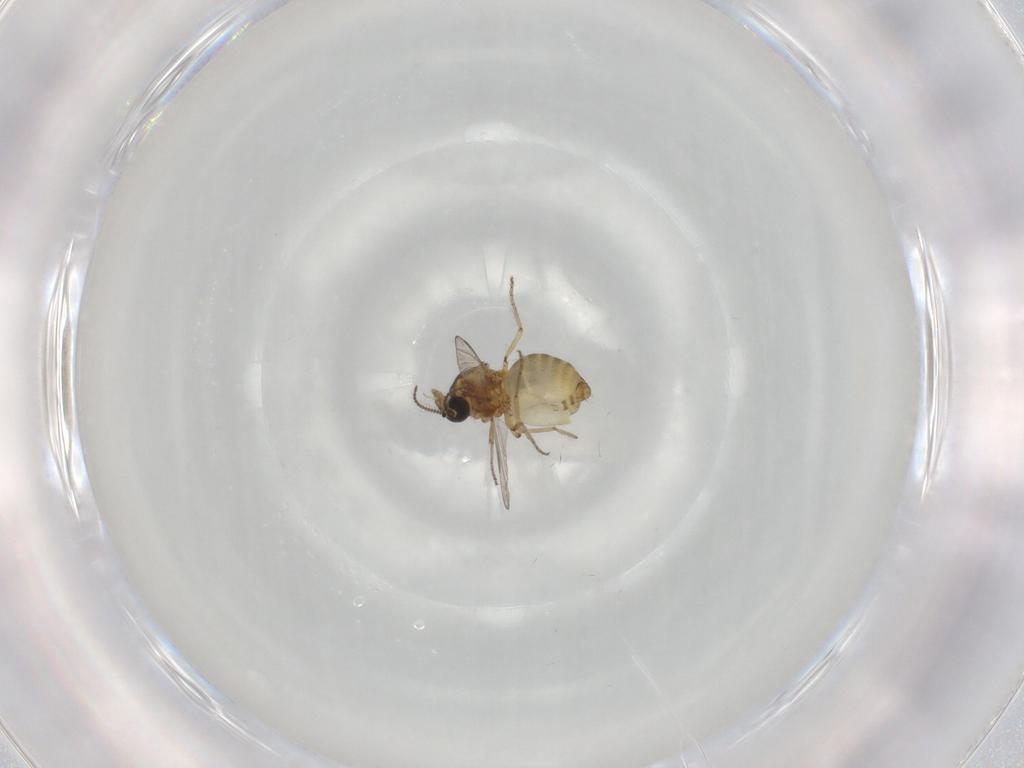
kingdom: Animalia
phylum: Arthropoda
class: Insecta
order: Diptera
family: Ceratopogonidae
